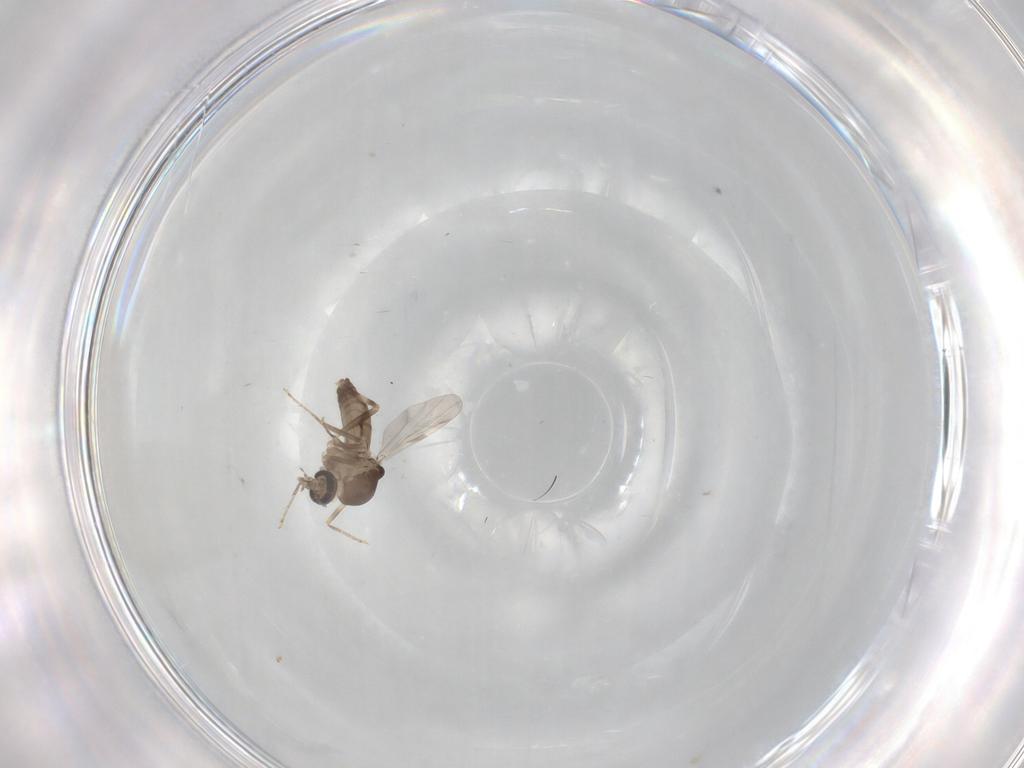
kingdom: Animalia
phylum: Arthropoda
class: Insecta
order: Diptera
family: Ceratopogonidae
